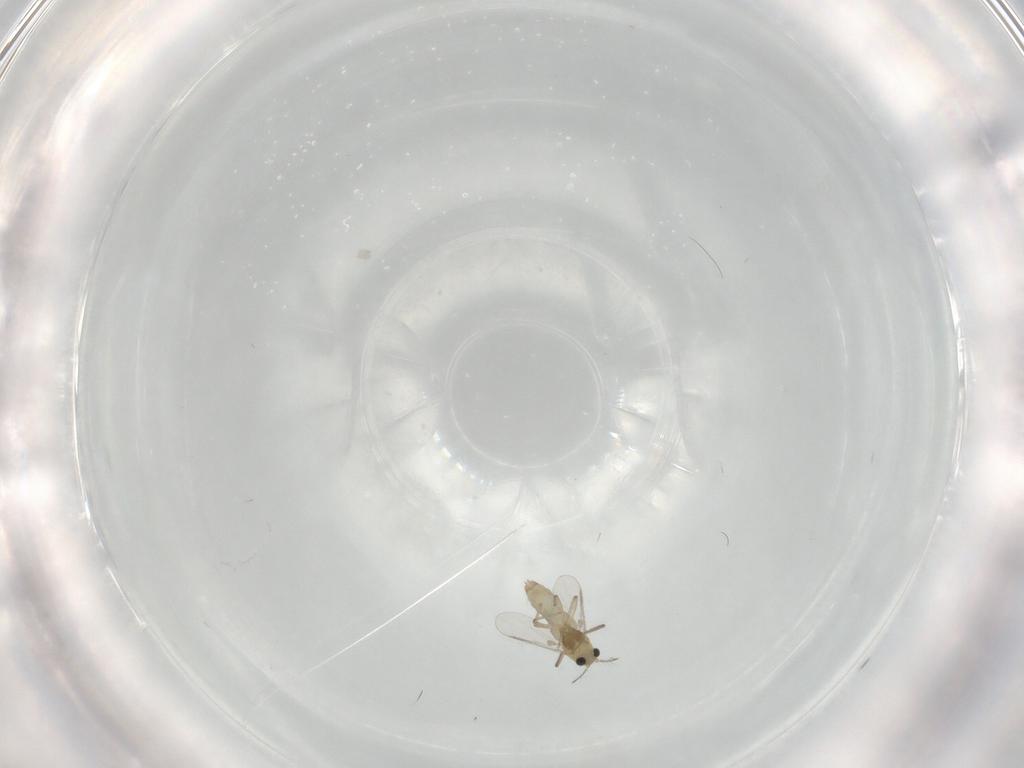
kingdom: Animalia
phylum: Arthropoda
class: Insecta
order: Diptera
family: Chironomidae
